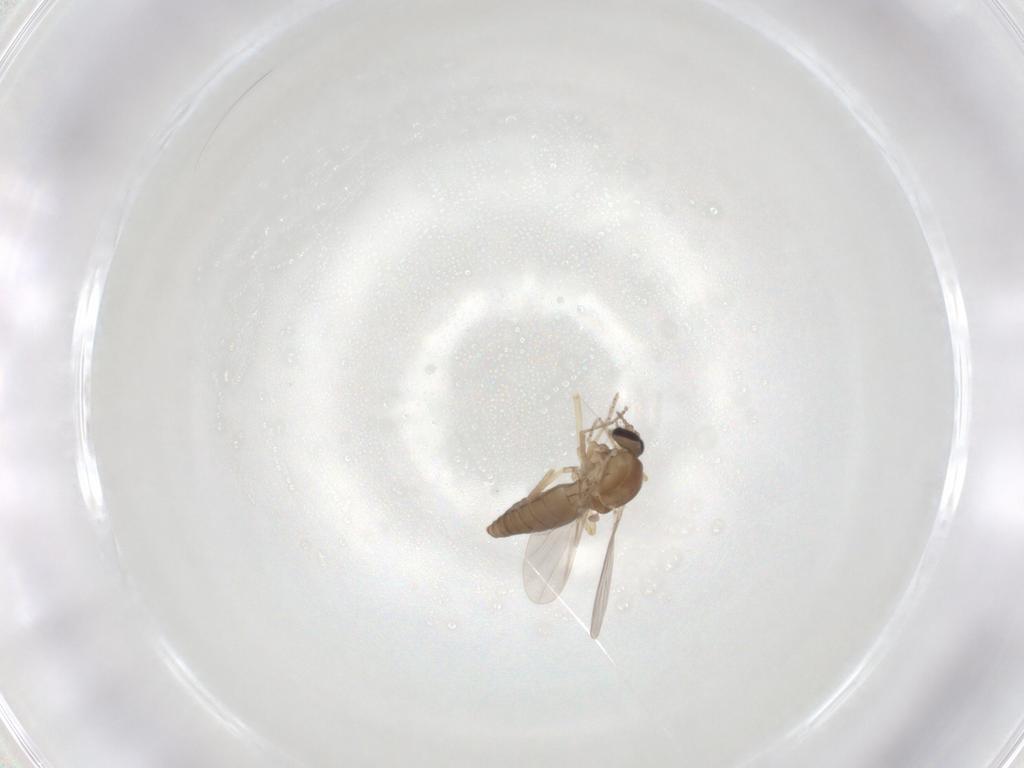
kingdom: Animalia
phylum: Arthropoda
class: Insecta
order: Diptera
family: Ceratopogonidae
